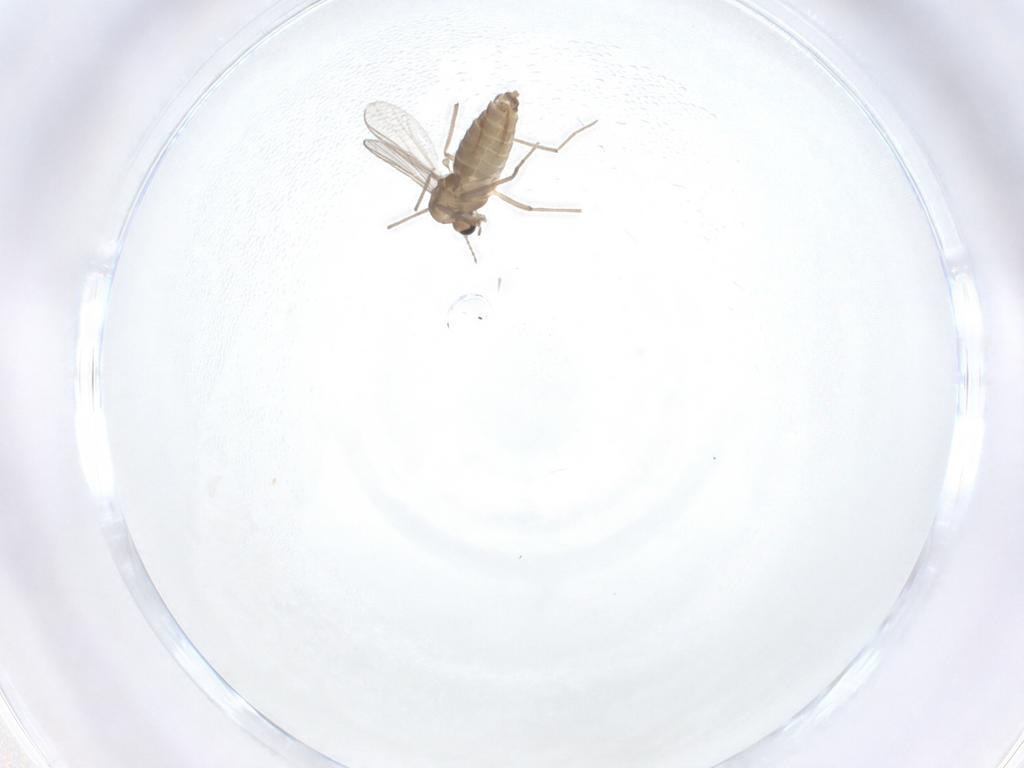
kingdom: Animalia
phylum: Arthropoda
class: Insecta
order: Diptera
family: Chironomidae
